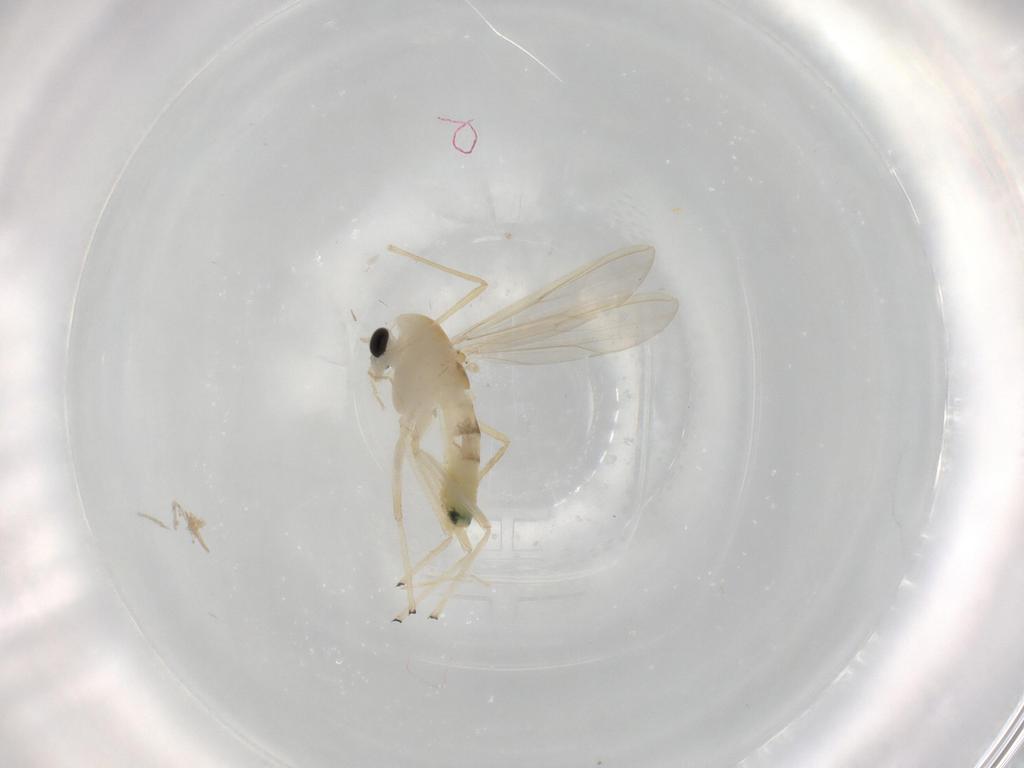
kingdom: Animalia
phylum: Arthropoda
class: Insecta
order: Diptera
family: Chironomidae
